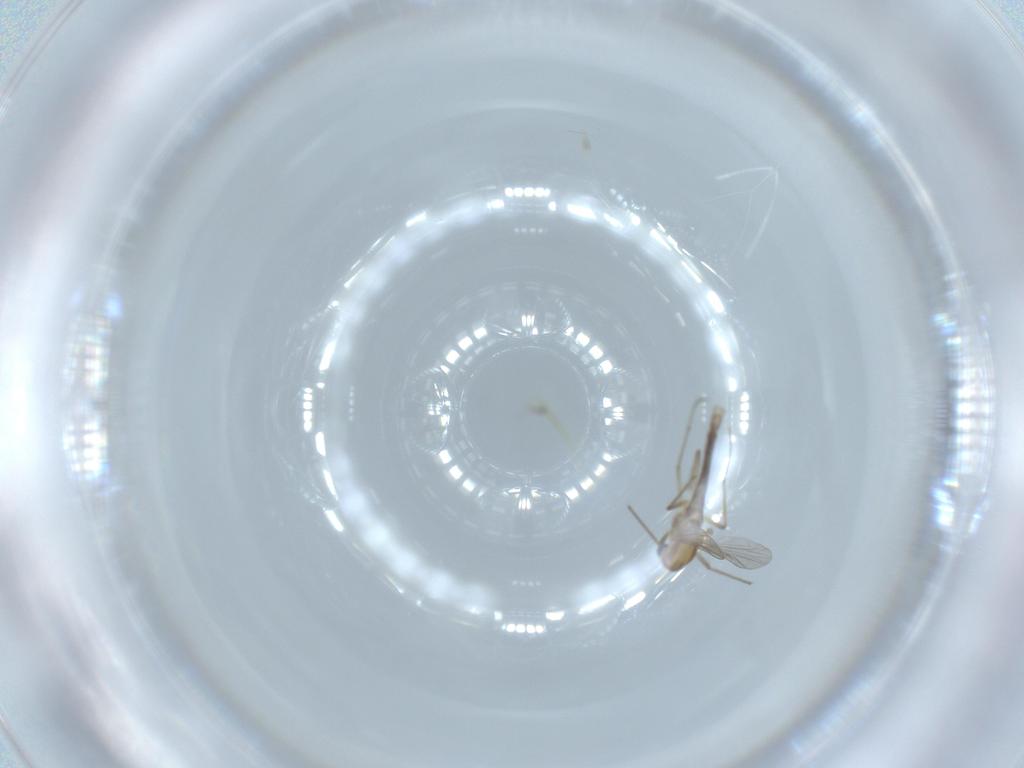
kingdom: Animalia
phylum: Arthropoda
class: Insecta
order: Diptera
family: Chironomidae
